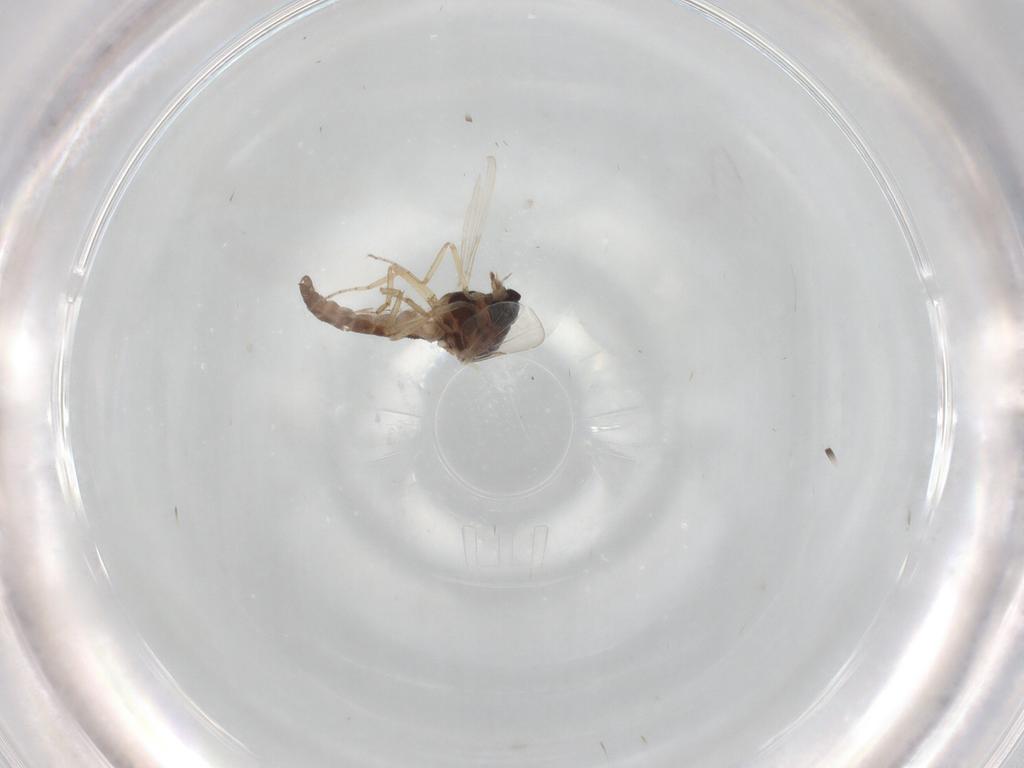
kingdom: Animalia
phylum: Arthropoda
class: Insecta
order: Diptera
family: Ceratopogonidae
